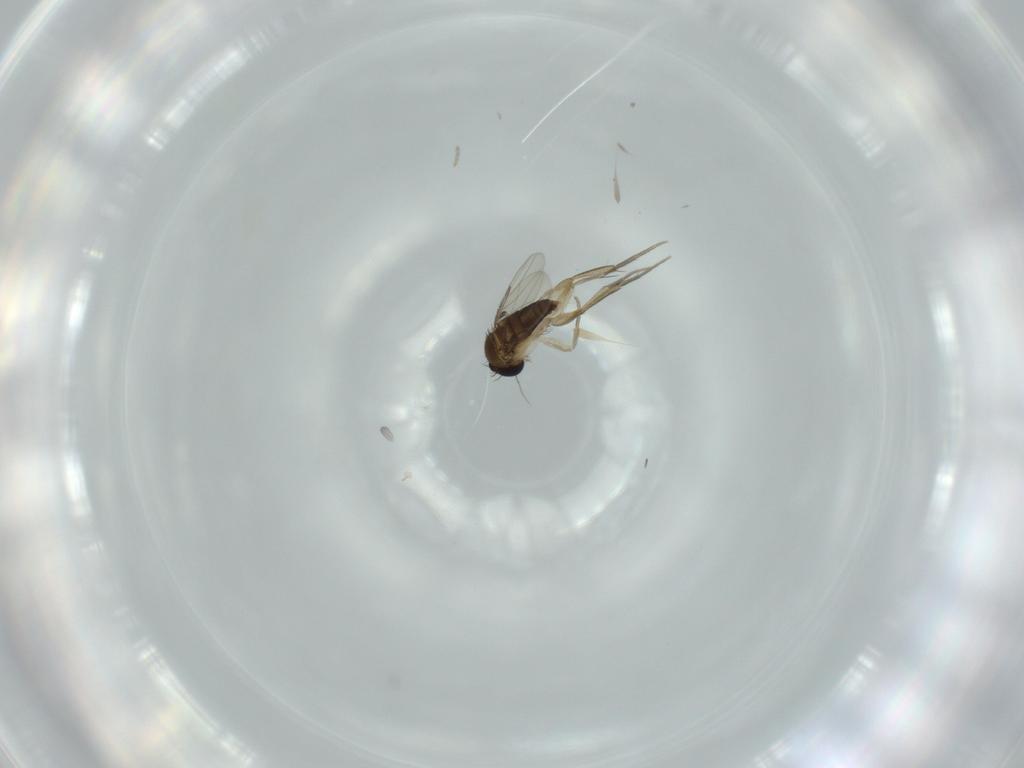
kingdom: Animalia
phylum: Arthropoda
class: Insecta
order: Diptera
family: Phoridae
